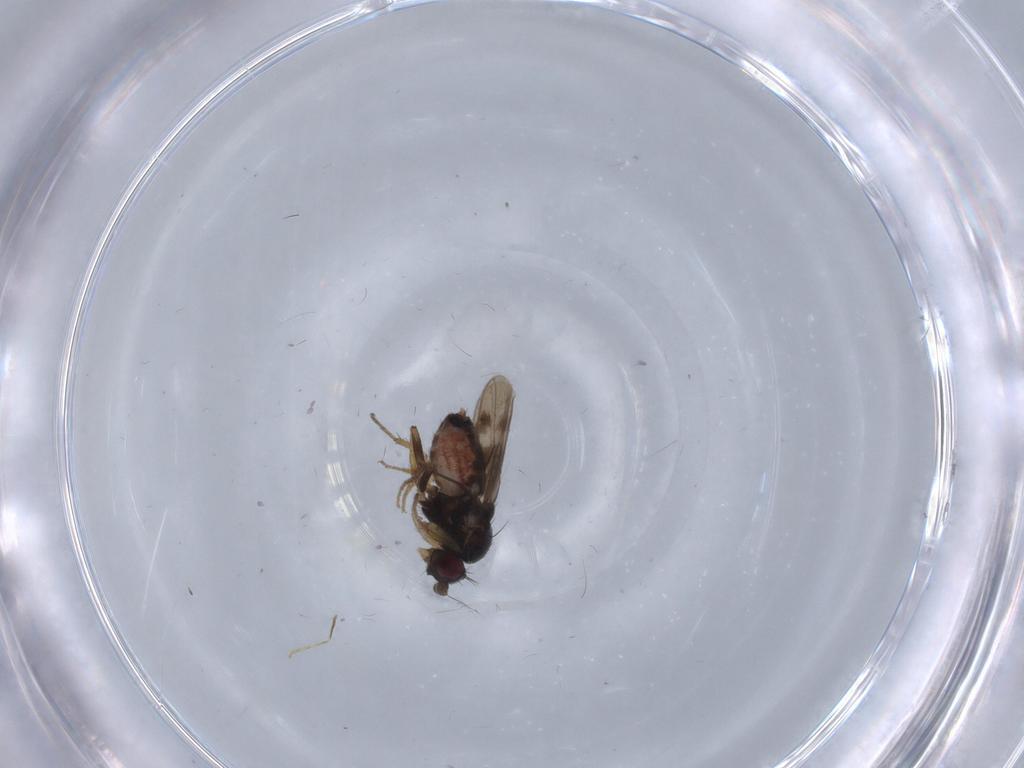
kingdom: Animalia
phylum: Arthropoda
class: Insecta
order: Diptera
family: Sphaeroceridae
